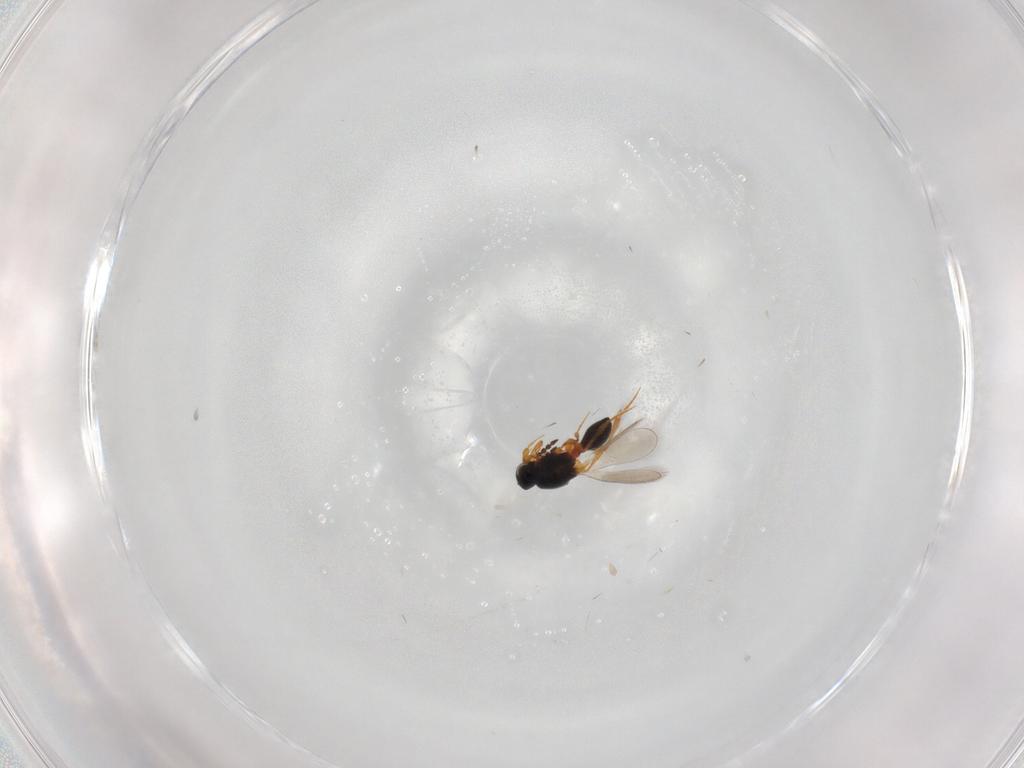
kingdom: Animalia
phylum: Arthropoda
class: Insecta
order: Hymenoptera
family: Platygastridae
